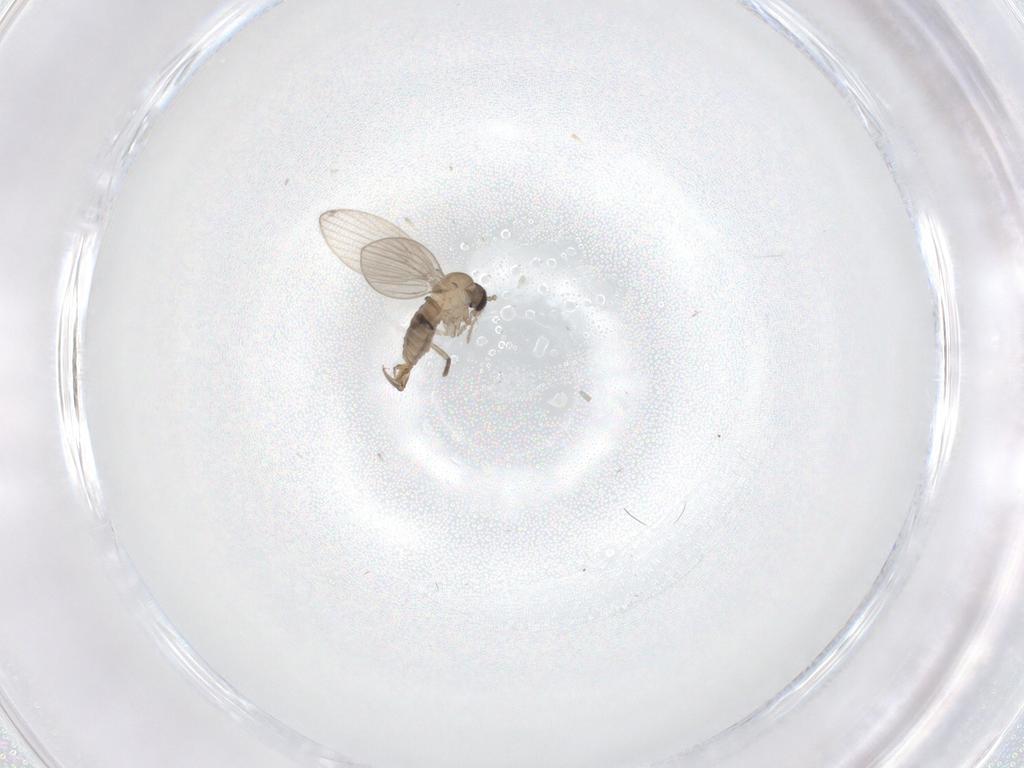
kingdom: Animalia
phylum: Arthropoda
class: Insecta
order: Diptera
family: Psychodidae
